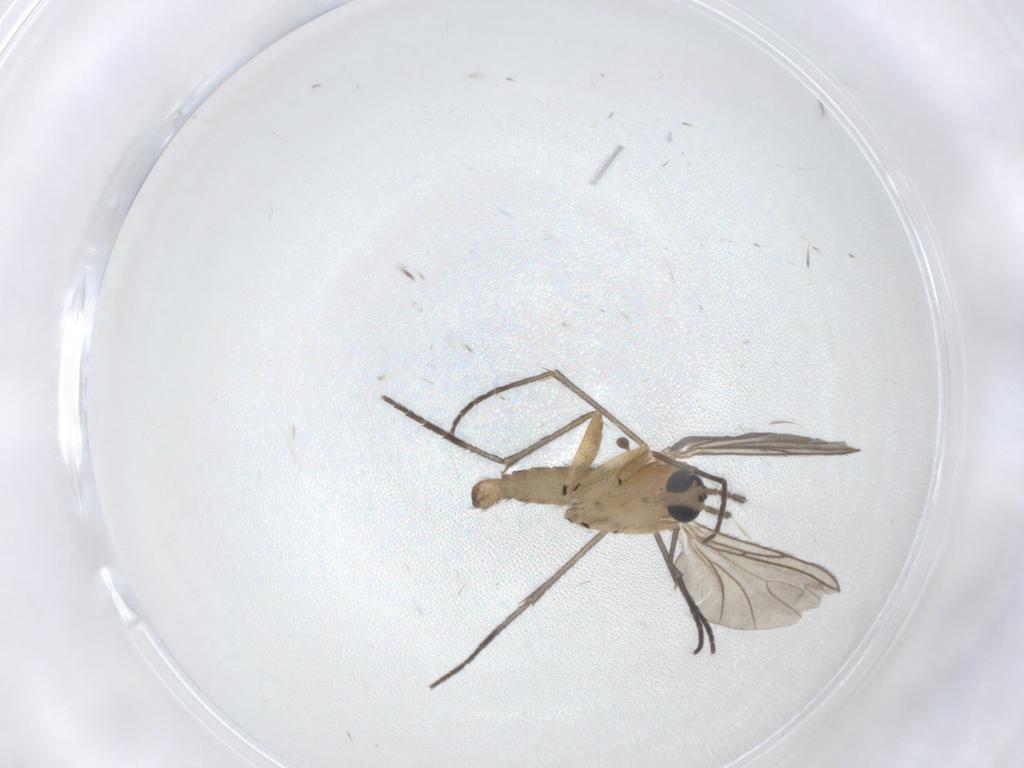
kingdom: Animalia
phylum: Arthropoda
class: Insecta
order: Diptera
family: Sciaridae
